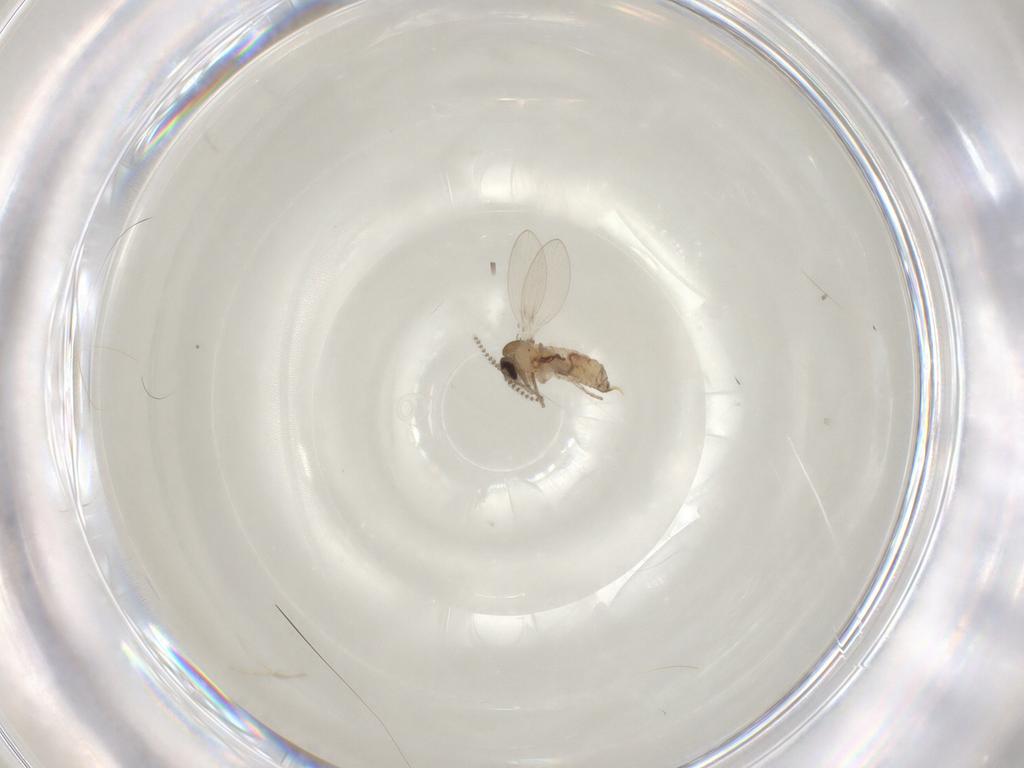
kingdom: Animalia
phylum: Arthropoda
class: Insecta
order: Diptera
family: Psychodidae
